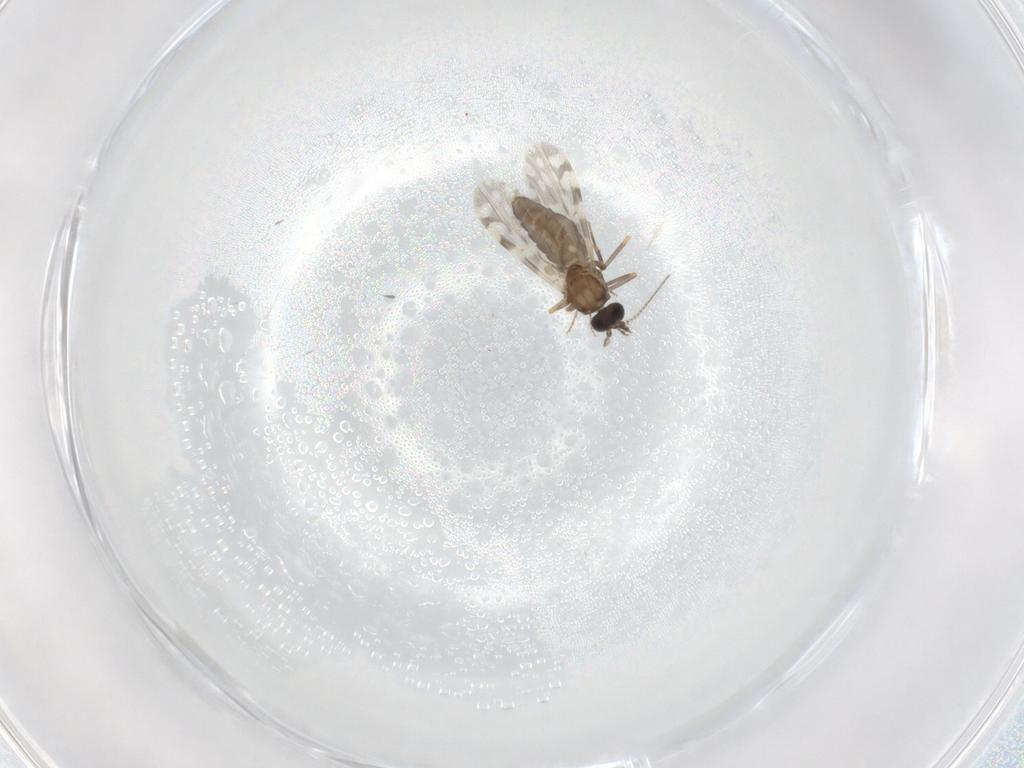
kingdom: Animalia
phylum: Arthropoda
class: Insecta
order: Diptera
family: Ceratopogonidae
